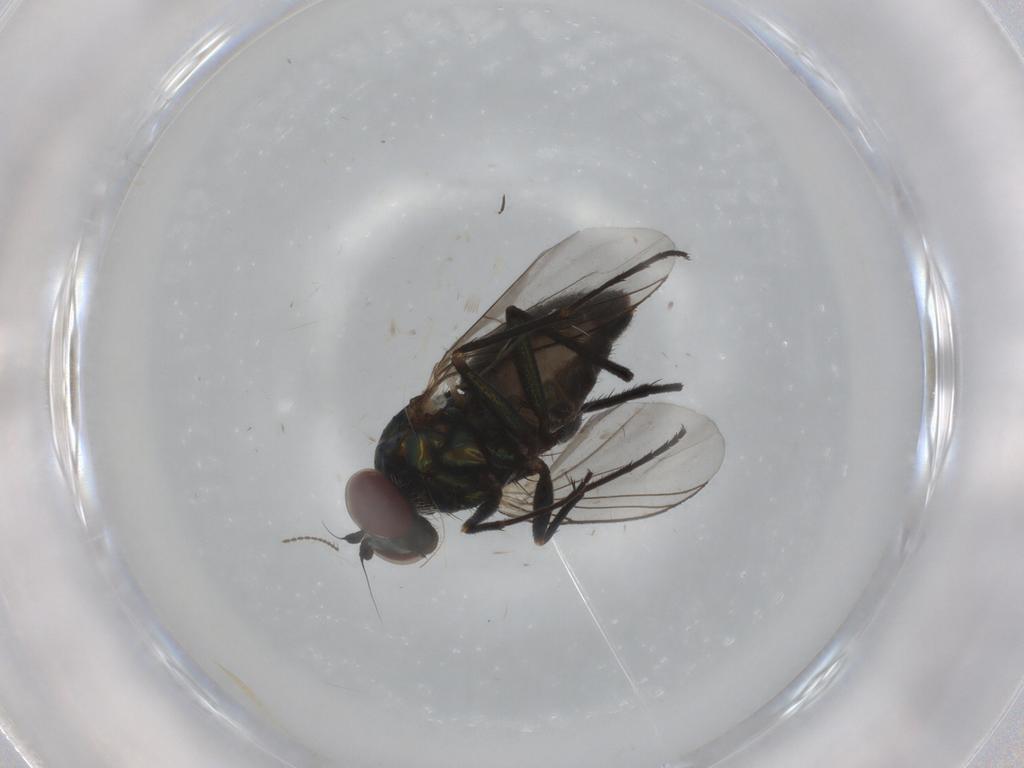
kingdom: Animalia
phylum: Arthropoda
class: Insecta
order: Diptera
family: Dolichopodidae
